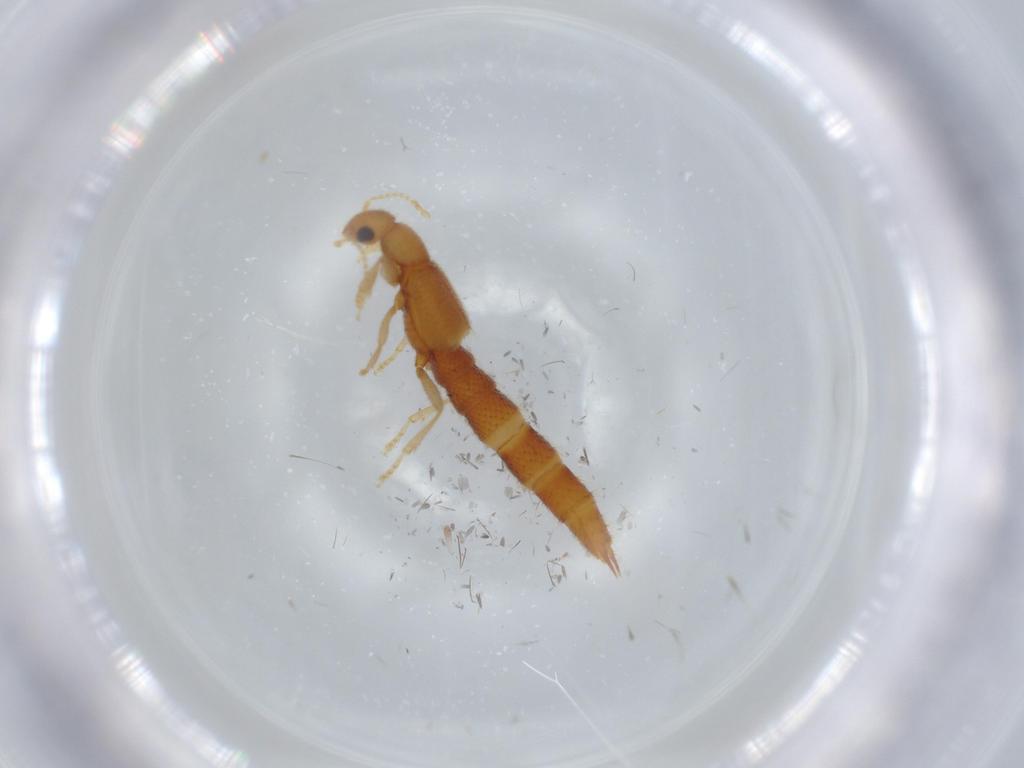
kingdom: Animalia
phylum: Arthropoda
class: Insecta
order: Coleoptera
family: Staphylinidae
